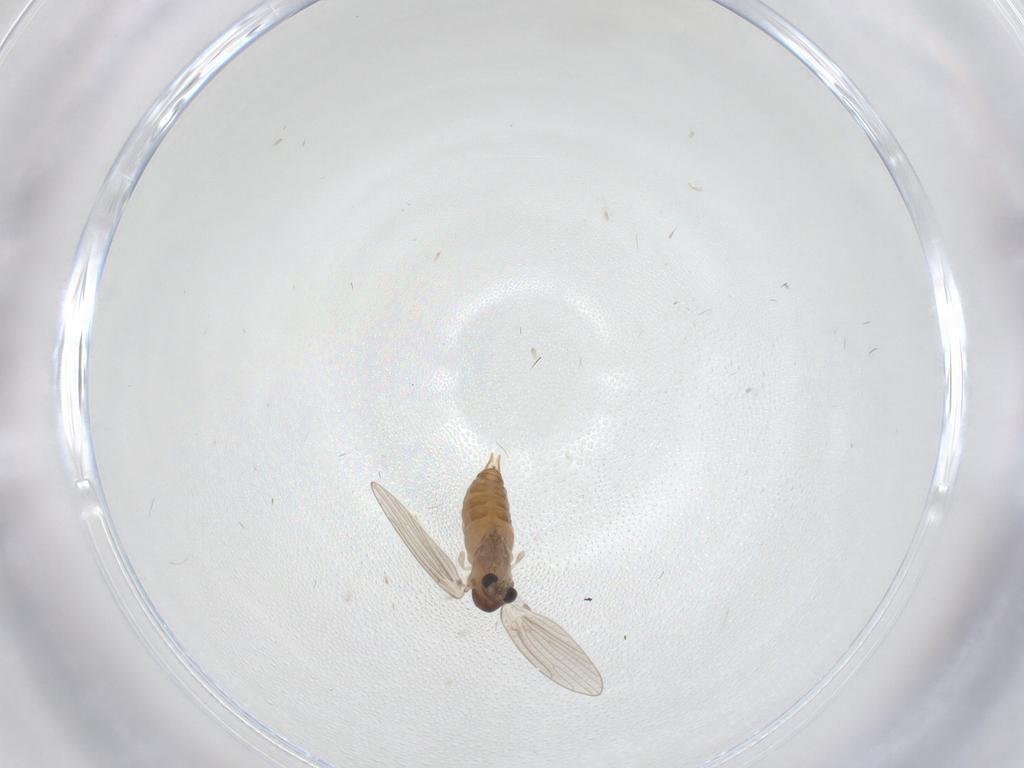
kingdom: Animalia
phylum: Arthropoda
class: Insecta
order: Diptera
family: Psychodidae
